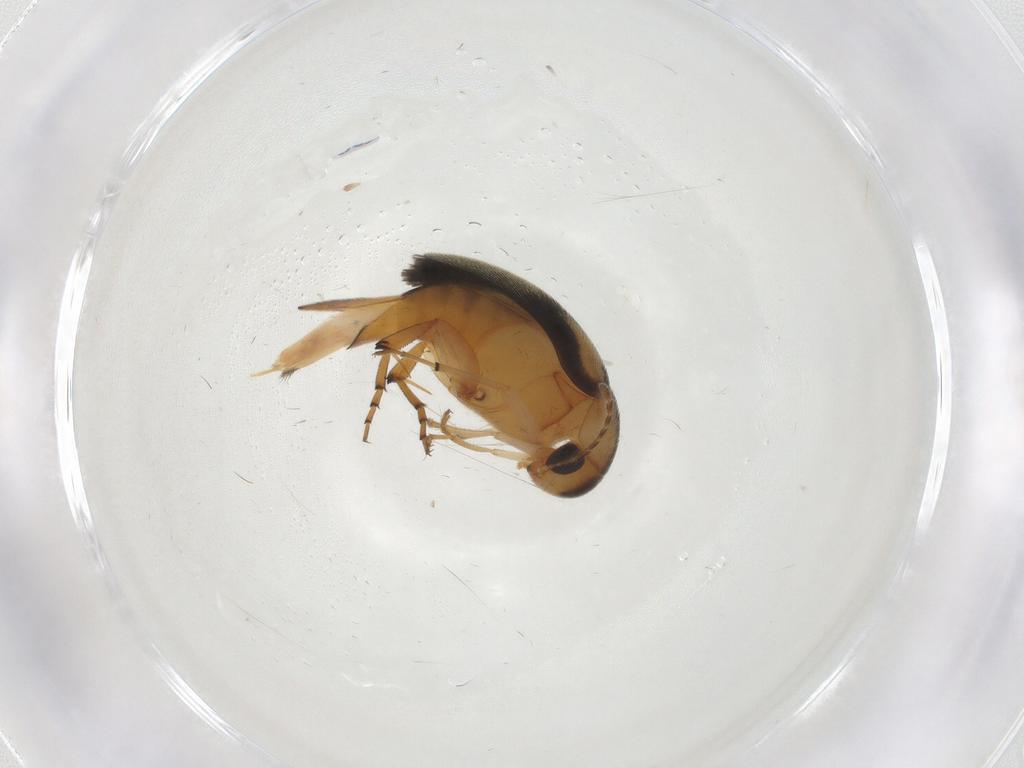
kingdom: Animalia
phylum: Arthropoda
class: Insecta
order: Coleoptera
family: Mordellidae
